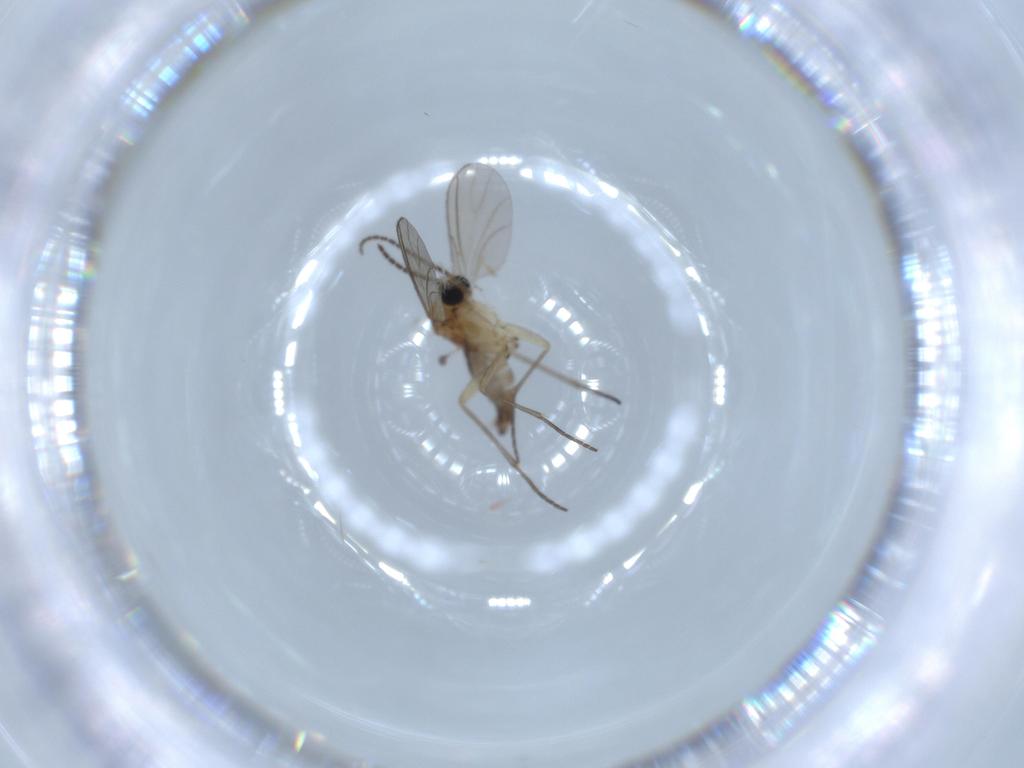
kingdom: Animalia
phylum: Arthropoda
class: Insecta
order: Diptera
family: Sciaridae
